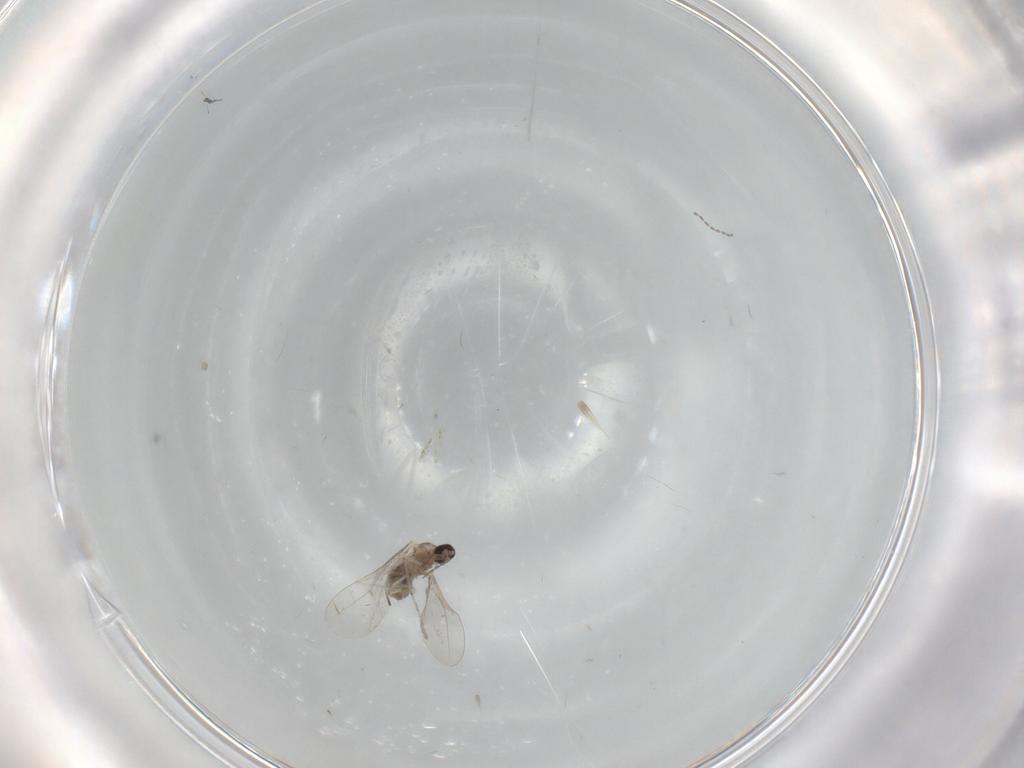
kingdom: Animalia
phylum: Arthropoda
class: Insecta
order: Diptera
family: Cecidomyiidae
